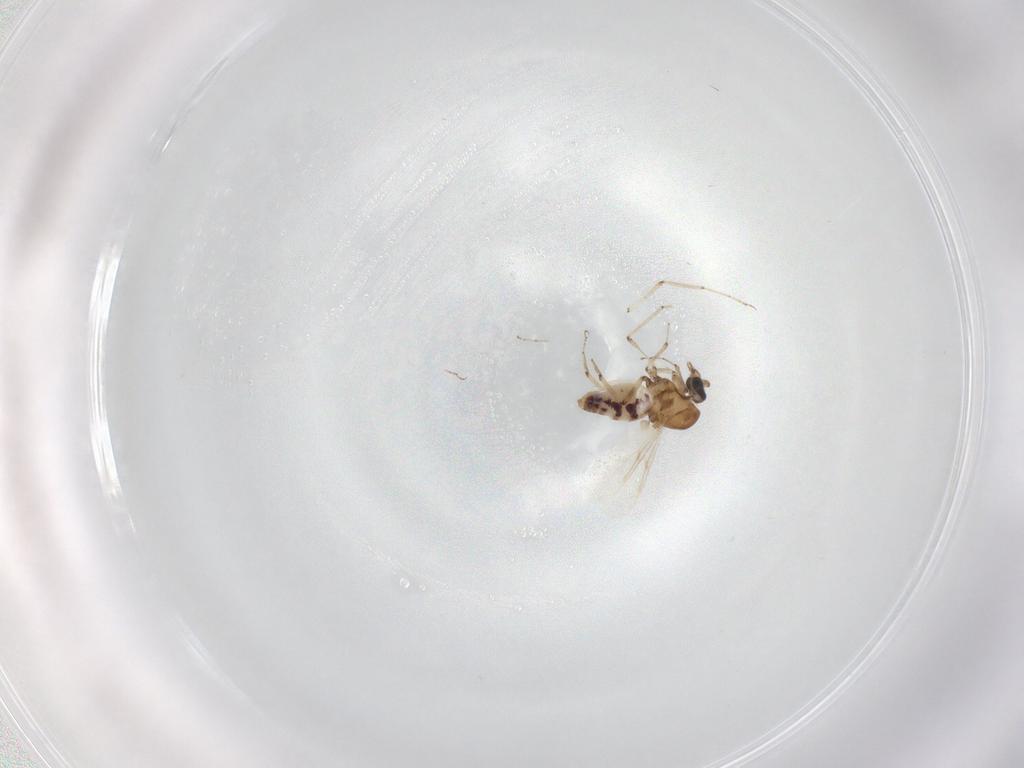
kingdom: Animalia
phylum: Arthropoda
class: Insecta
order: Diptera
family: Ceratopogonidae
